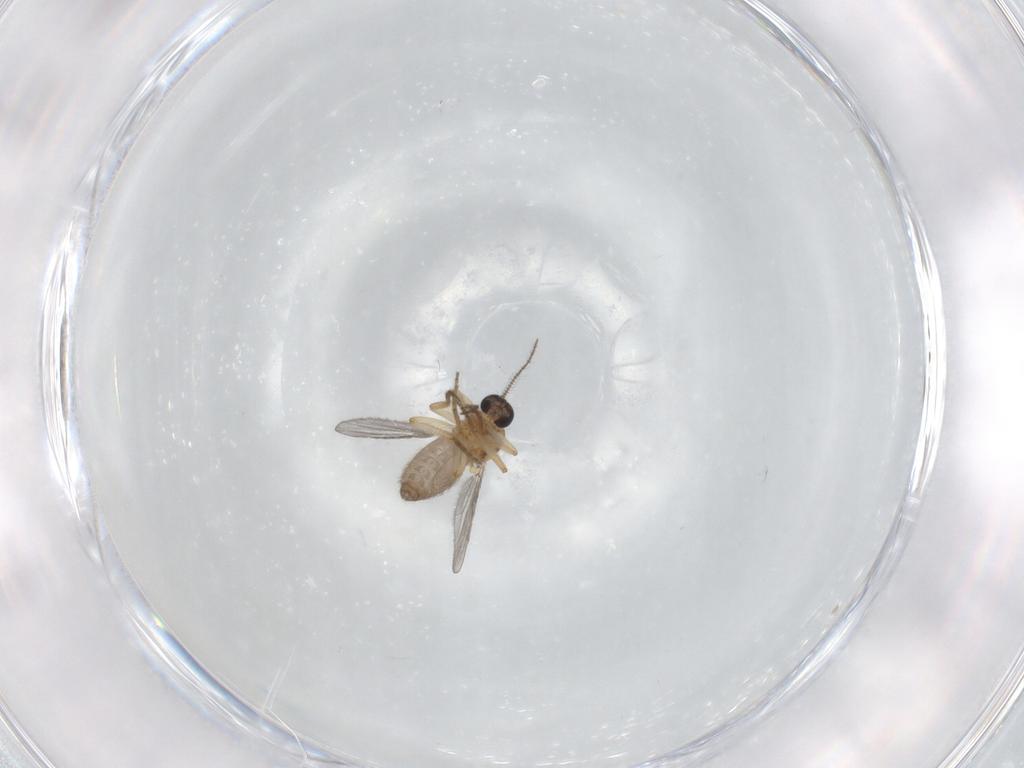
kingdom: Animalia
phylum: Arthropoda
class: Insecta
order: Diptera
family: Ceratopogonidae
